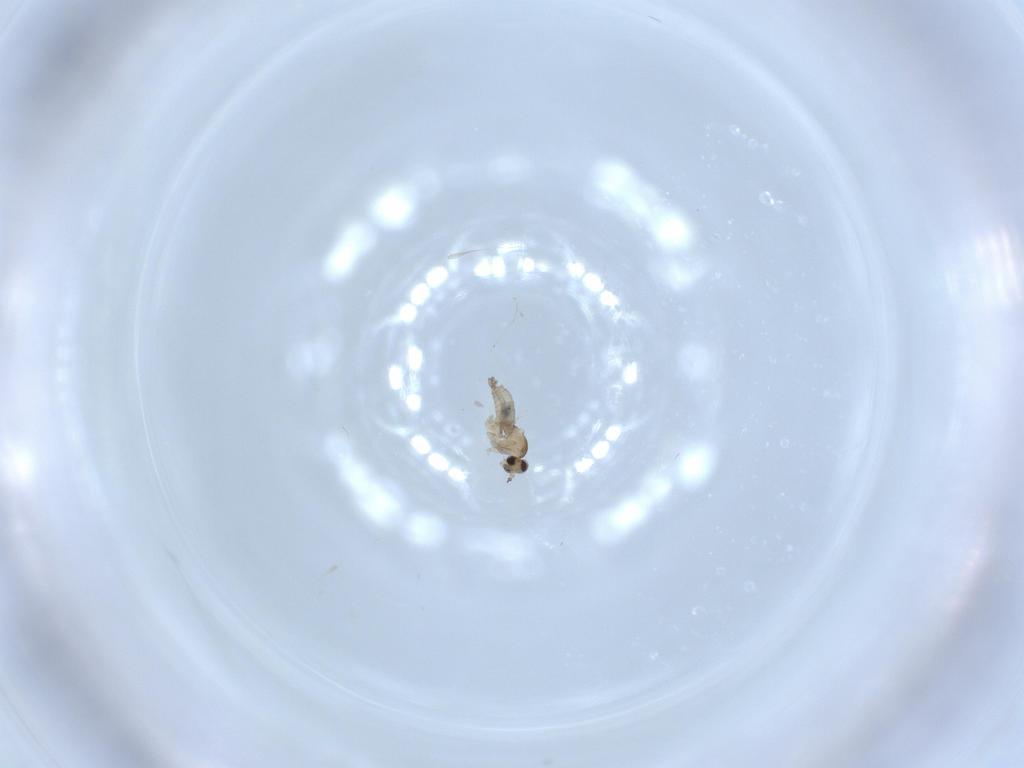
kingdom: Animalia
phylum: Arthropoda
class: Insecta
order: Diptera
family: Cecidomyiidae
